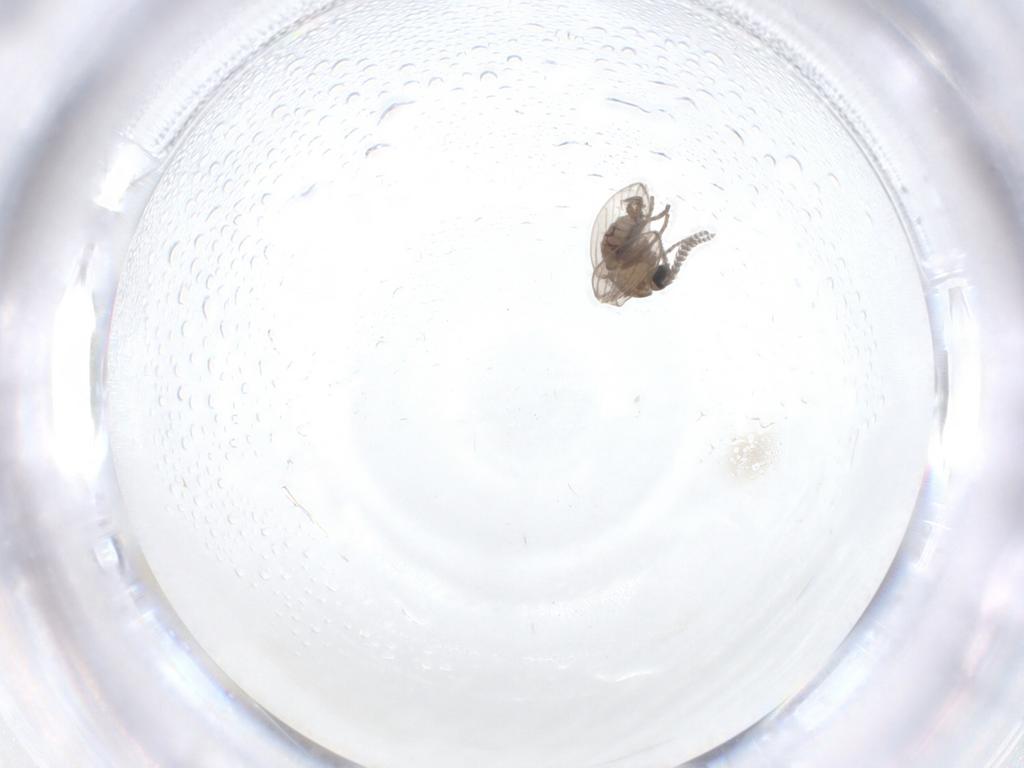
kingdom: Animalia
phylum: Arthropoda
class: Insecta
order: Diptera
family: Psychodidae
